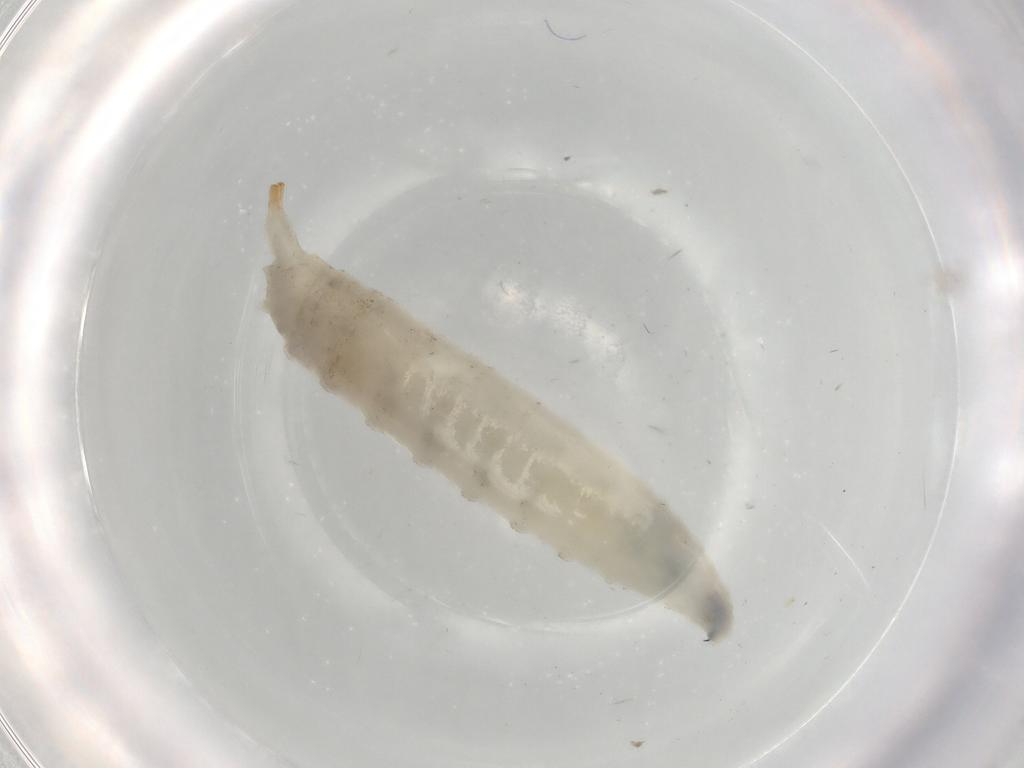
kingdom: Animalia
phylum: Arthropoda
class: Insecta
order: Diptera
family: Drosophilidae
